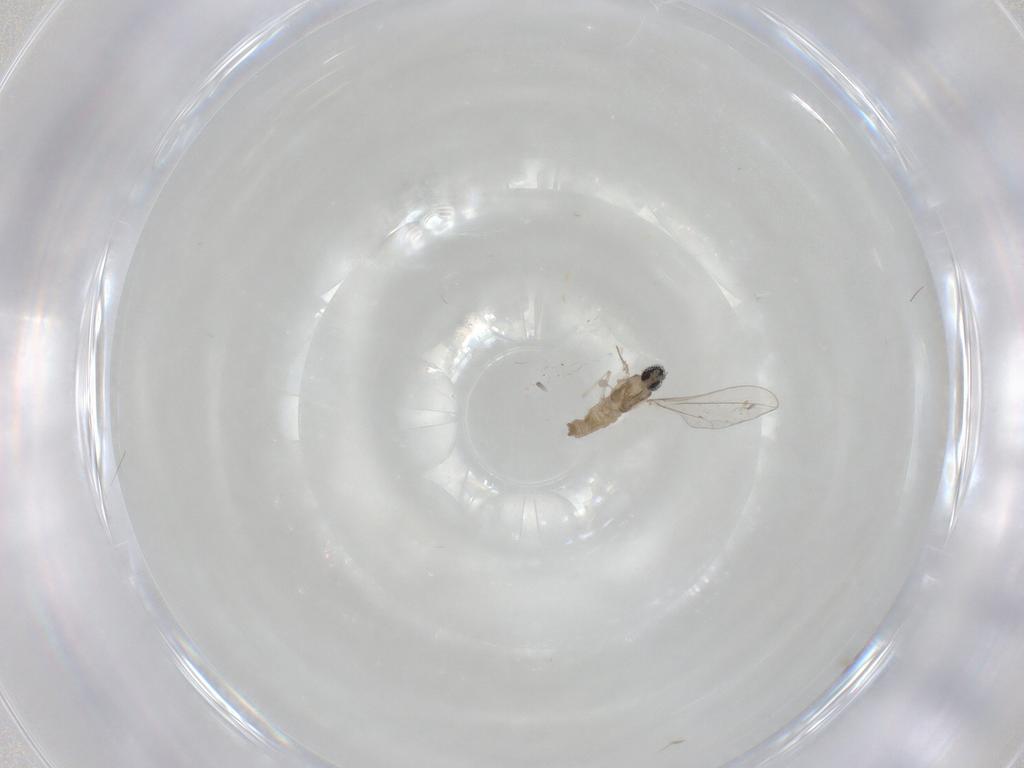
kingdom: Animalia
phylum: Arthropoda
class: Insecta
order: Diptera
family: Cecidomyiidae
